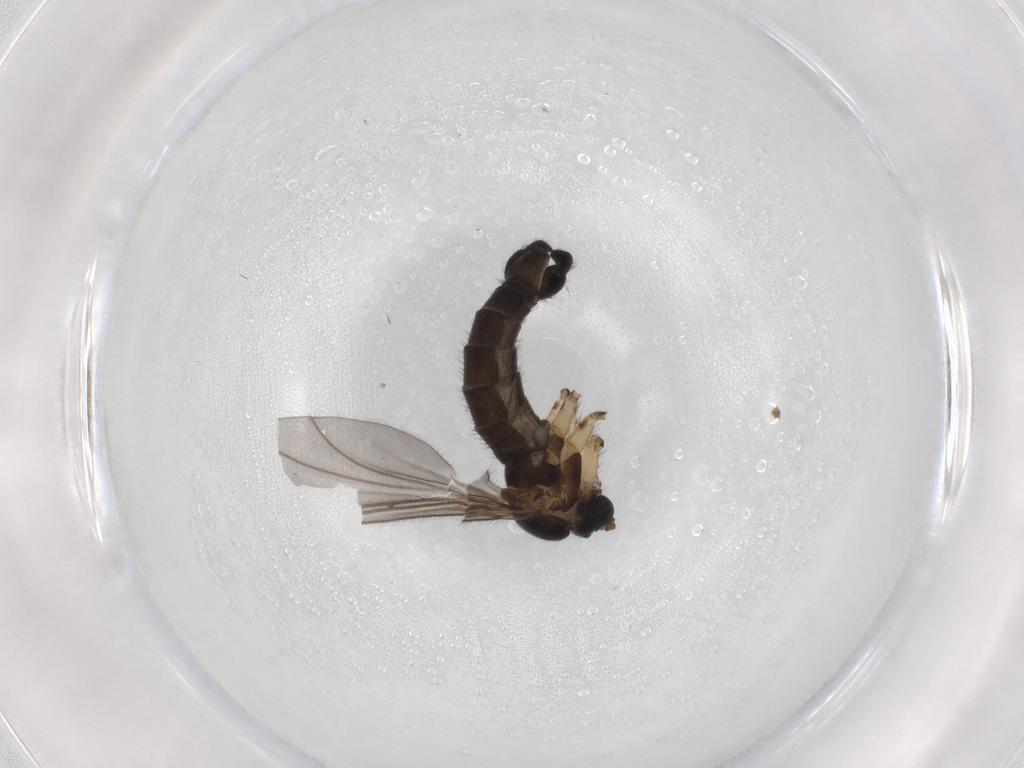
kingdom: Animalia
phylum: Arthropoda
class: Insecta
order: Diptera
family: Sciaridae
